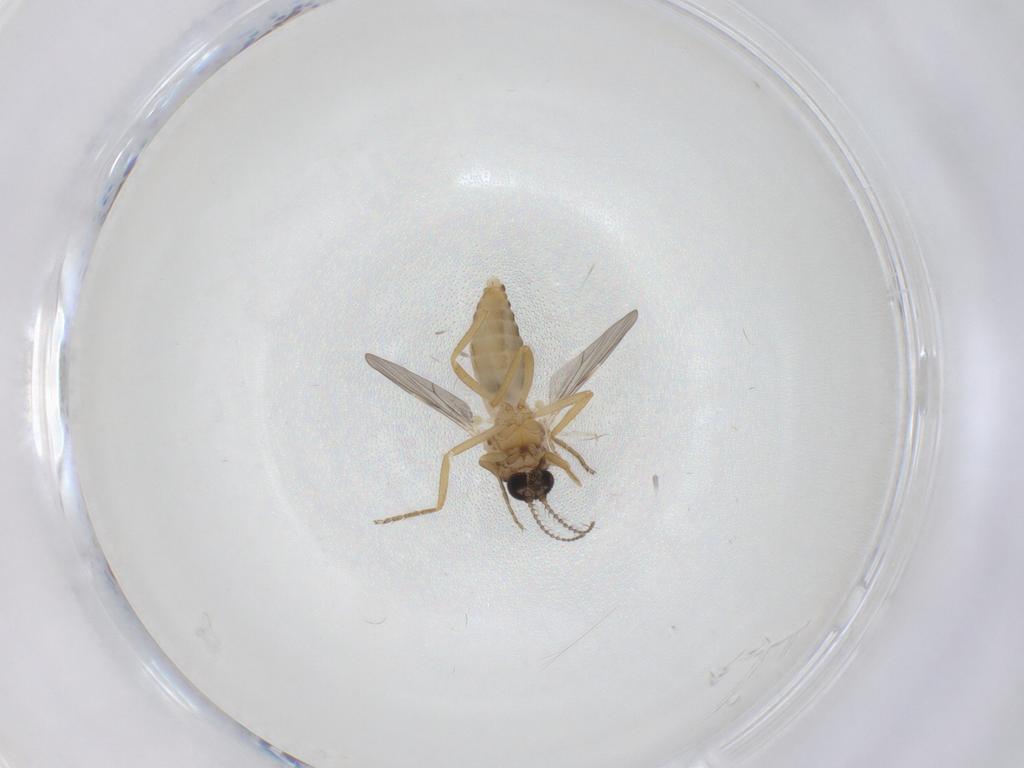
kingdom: Animalia
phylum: Arthropoda
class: Insecta
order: Diptera
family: Ceratopogonidae
